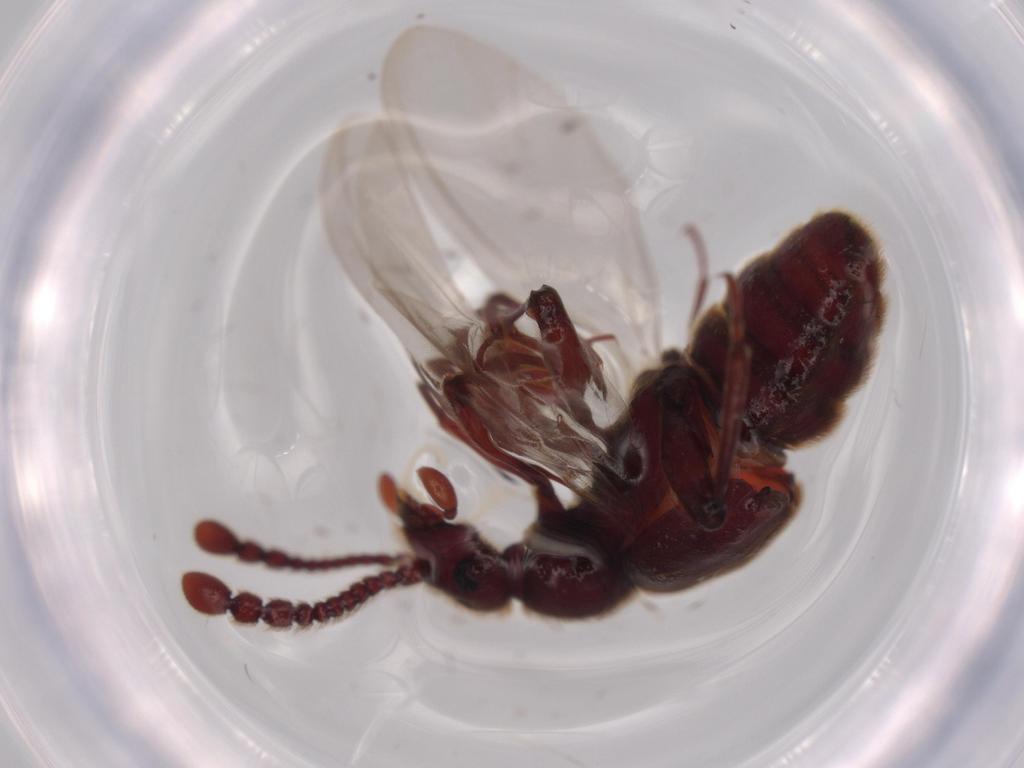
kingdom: Animalia
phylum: Arthropoda
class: Insecta
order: Coleoptera
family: Staphylinidae
